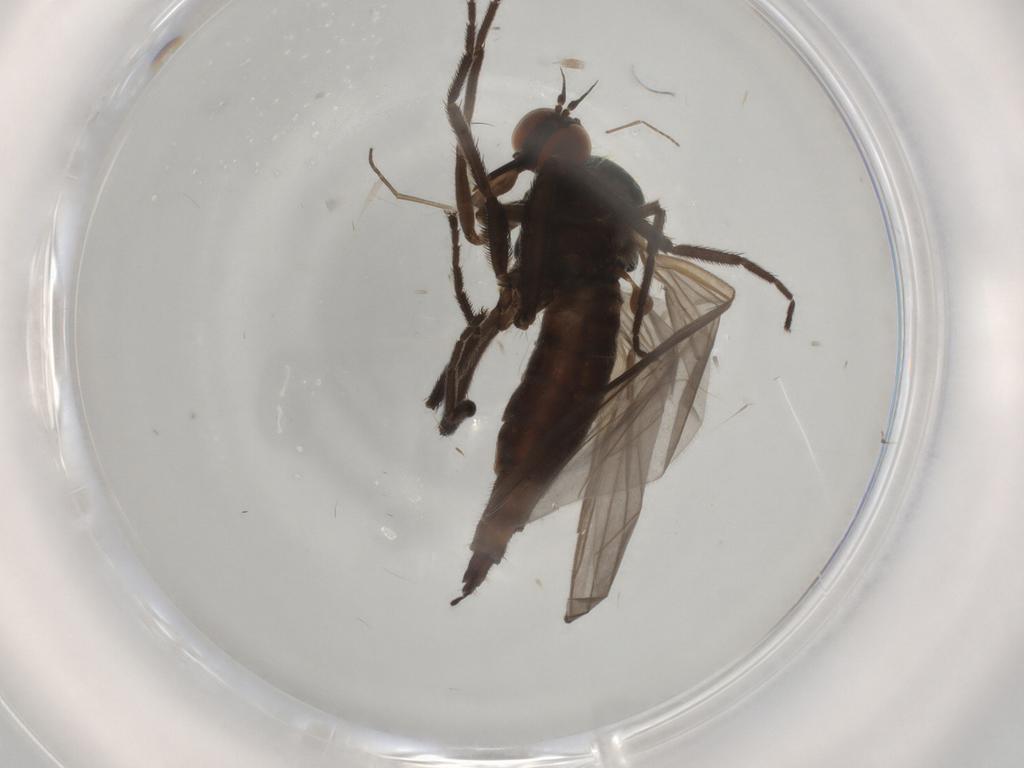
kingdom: Animalia
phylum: Arthropoda
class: Insecta
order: Diptera
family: Empididae
